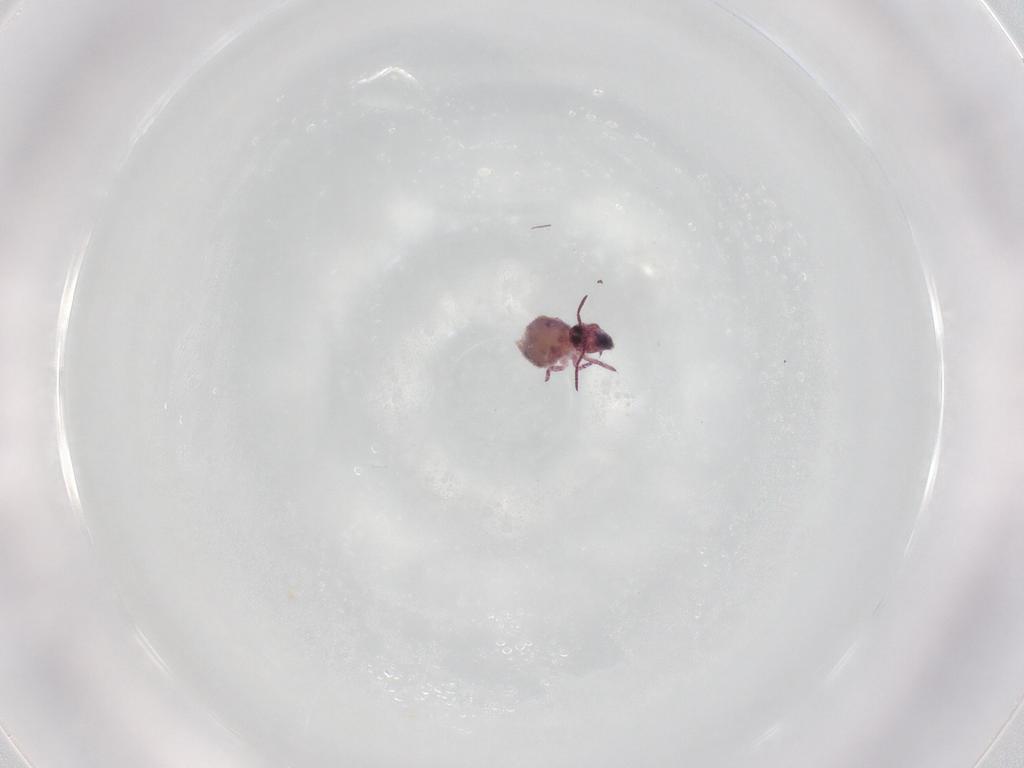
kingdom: Animalia
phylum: Arthropoda
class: Collembola
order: Symphypleona
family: Sminthurididae
